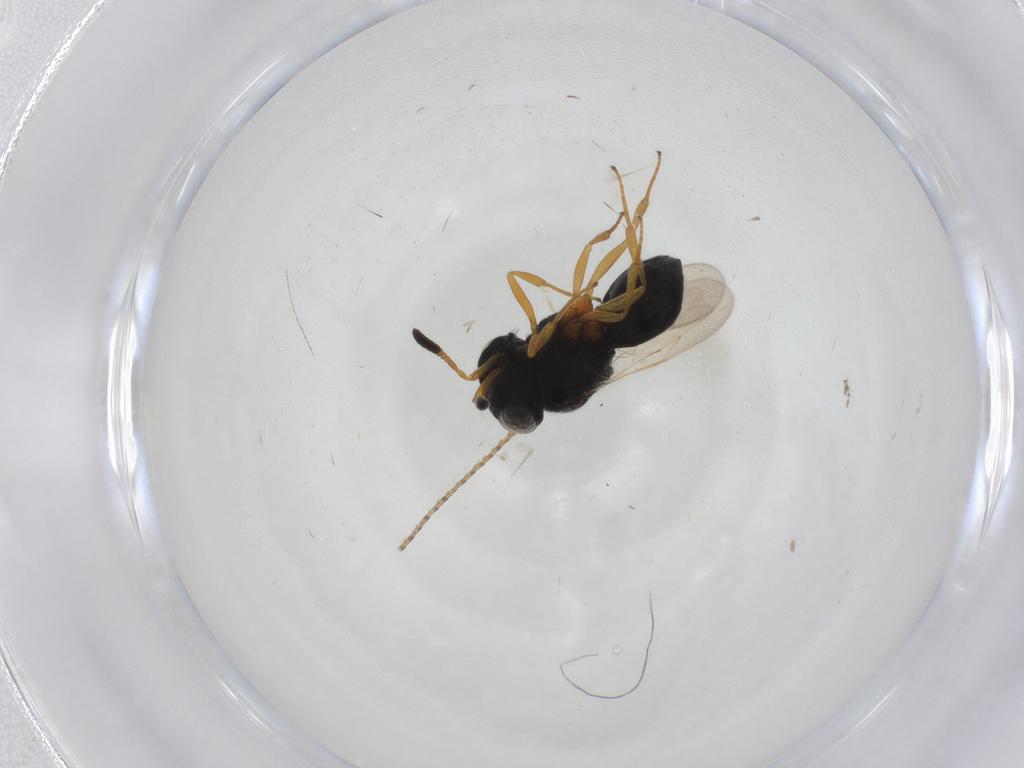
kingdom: Animalia
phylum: Arthropoda
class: Insecta
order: Hymenoptera
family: Scelionidae
